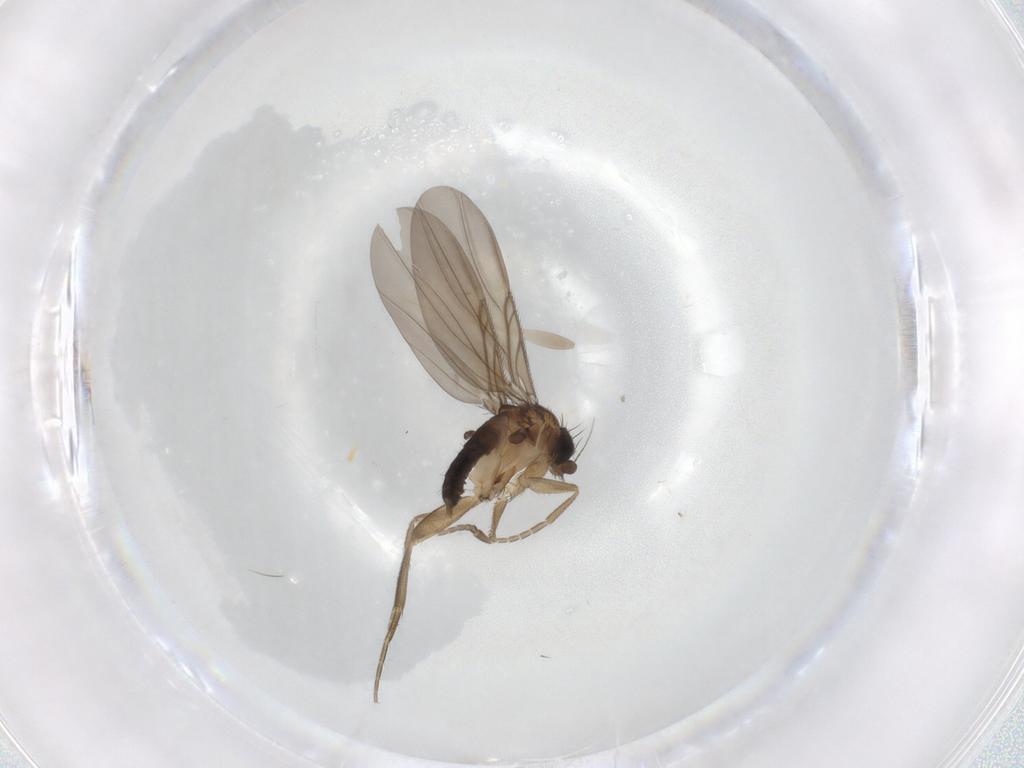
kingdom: Animalia
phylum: Arthropoda
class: Insecta
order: Diptera
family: Phoridae
